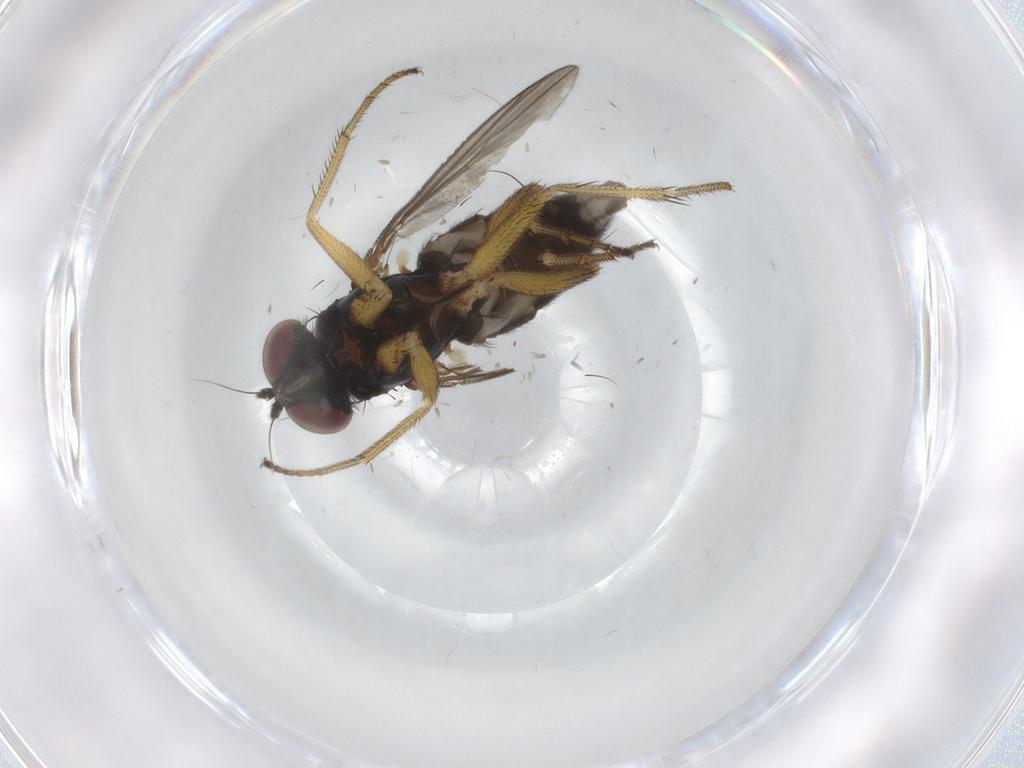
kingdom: Animalia
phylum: Arthropoda
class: Insecta
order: Diptera
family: Dolichopodidae
